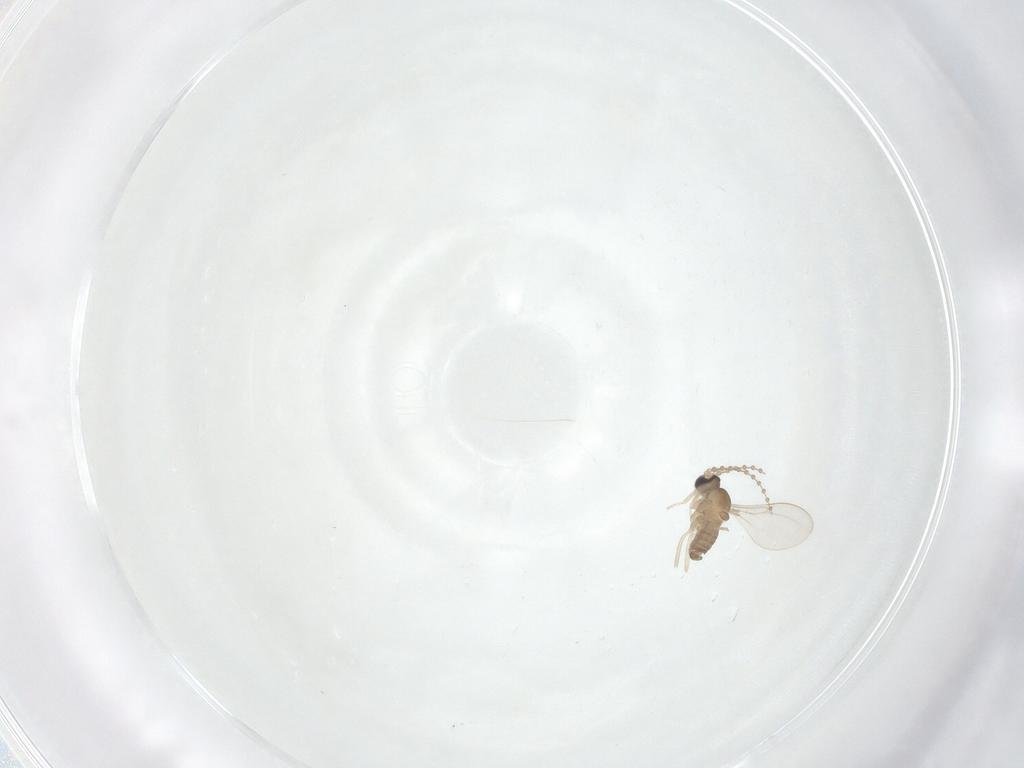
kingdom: Animalia
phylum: Arthropoda
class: Insecta
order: Diptera
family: Cecidomyiidae
